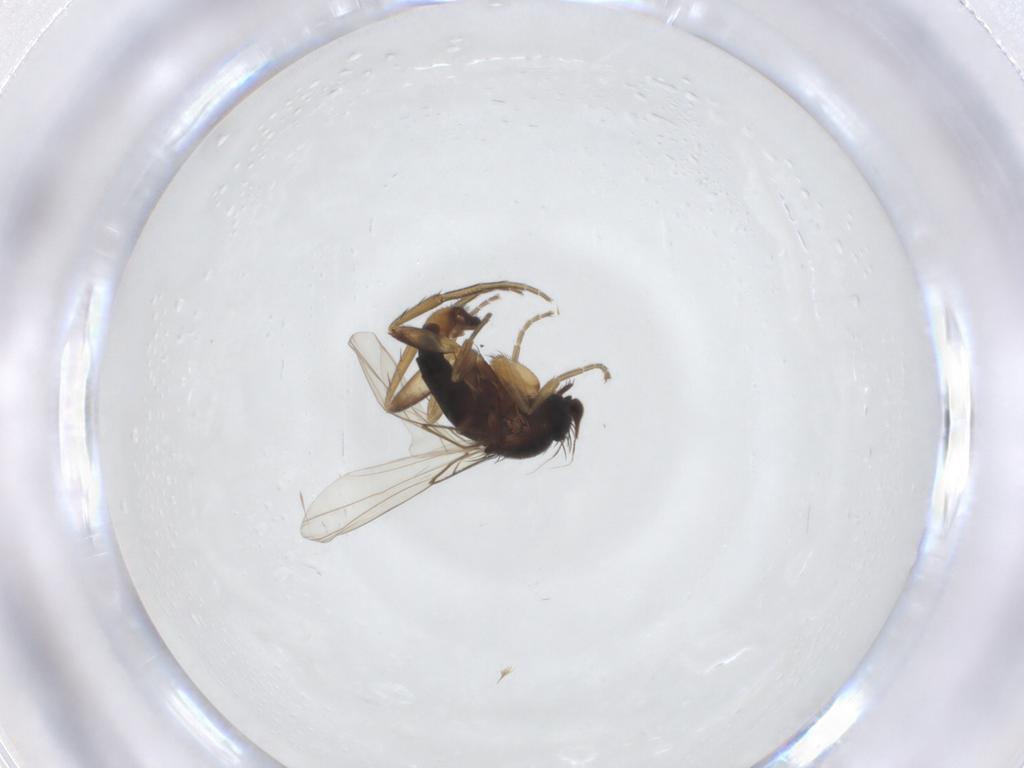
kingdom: Animalia
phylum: Arthropoda
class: Insecta
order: Diptera
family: Phoridae
